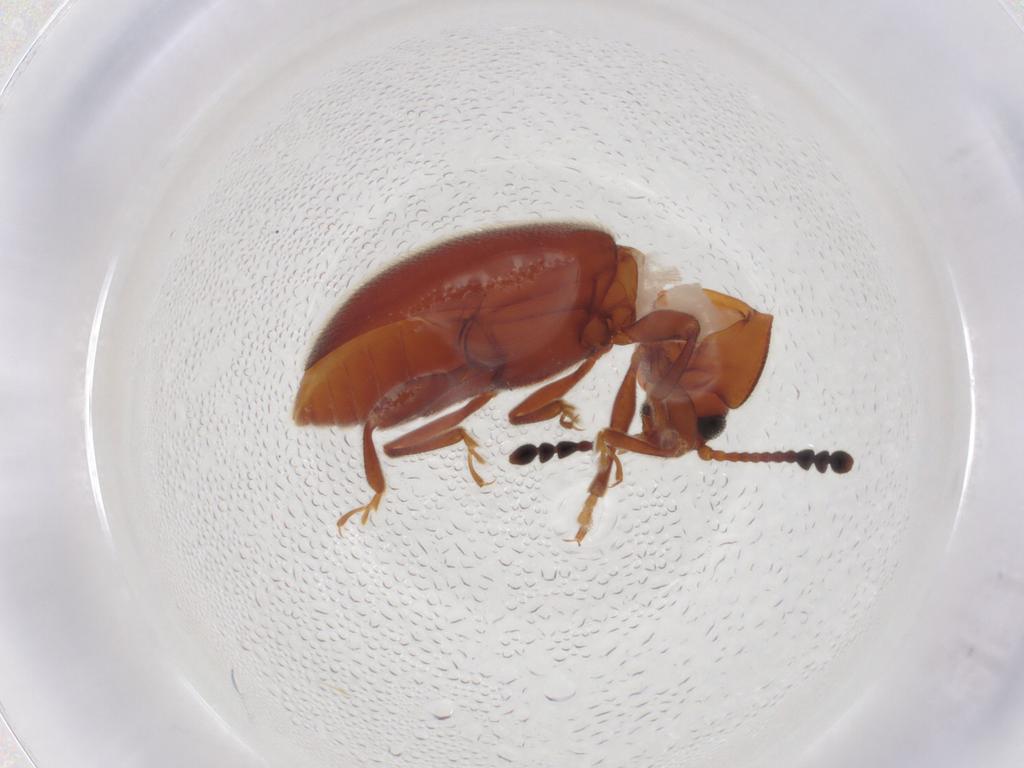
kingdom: Animalia
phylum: Arthropoda
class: Insecta
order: Coleoptera
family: Endomychidae
